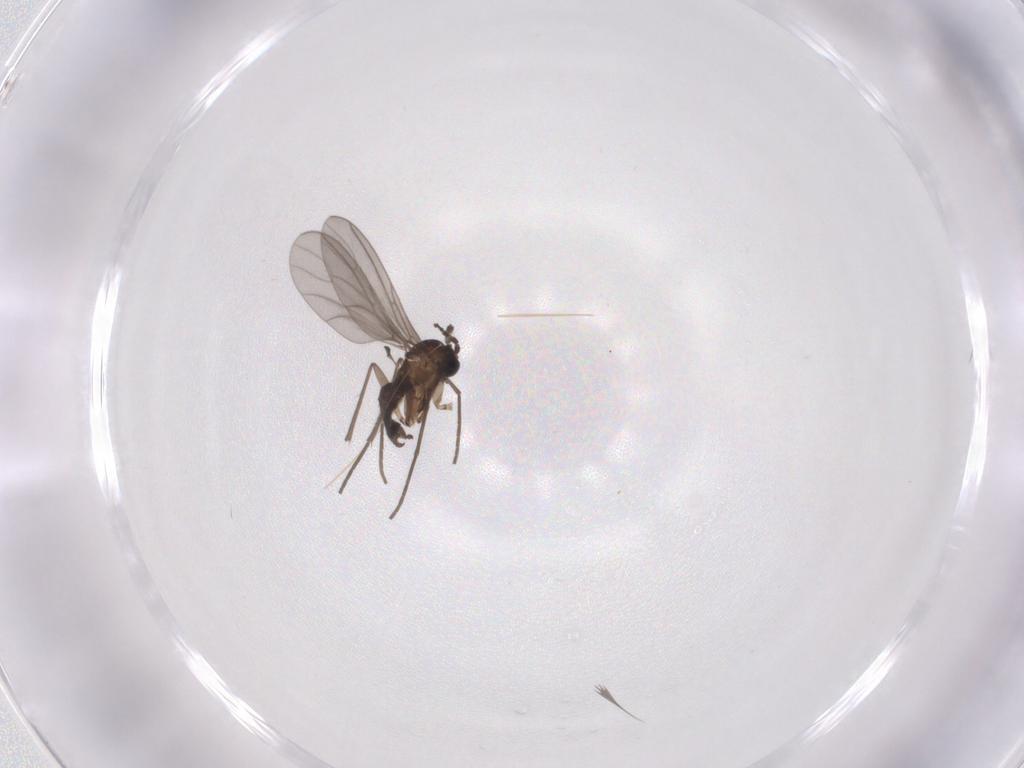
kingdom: Animalia
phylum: Arthropoda
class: Insecta
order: Diptera
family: Sciaridae
